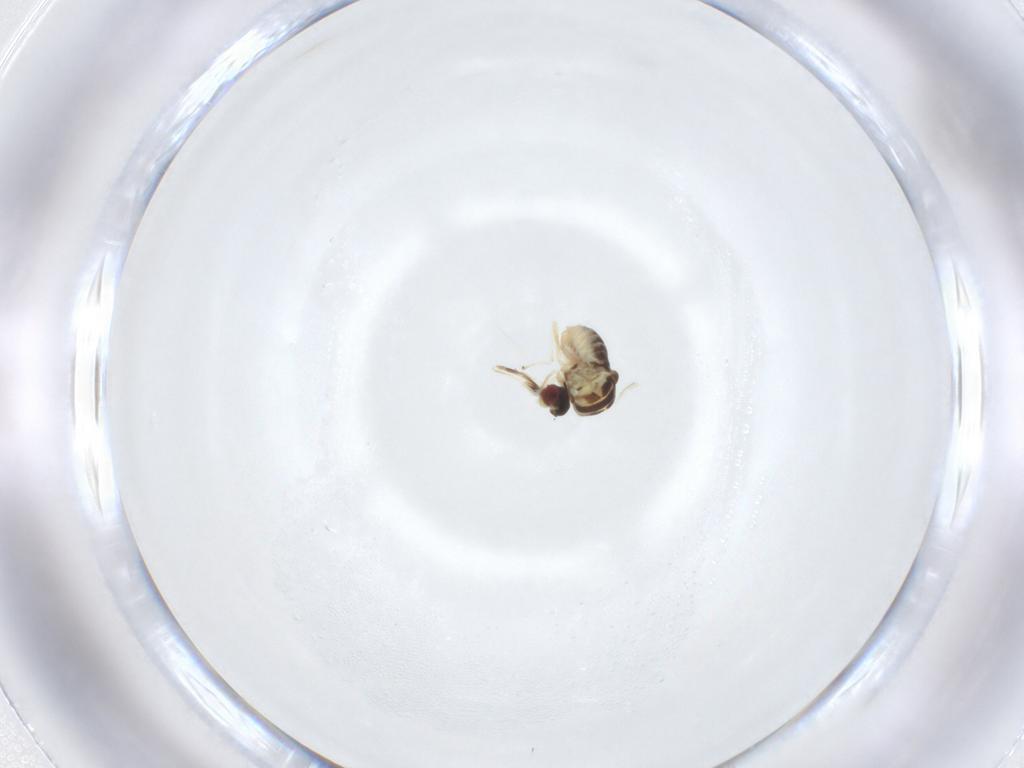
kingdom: Animalia
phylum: Arthropoda
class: Insecta
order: Diptera
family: Bombyliidae
